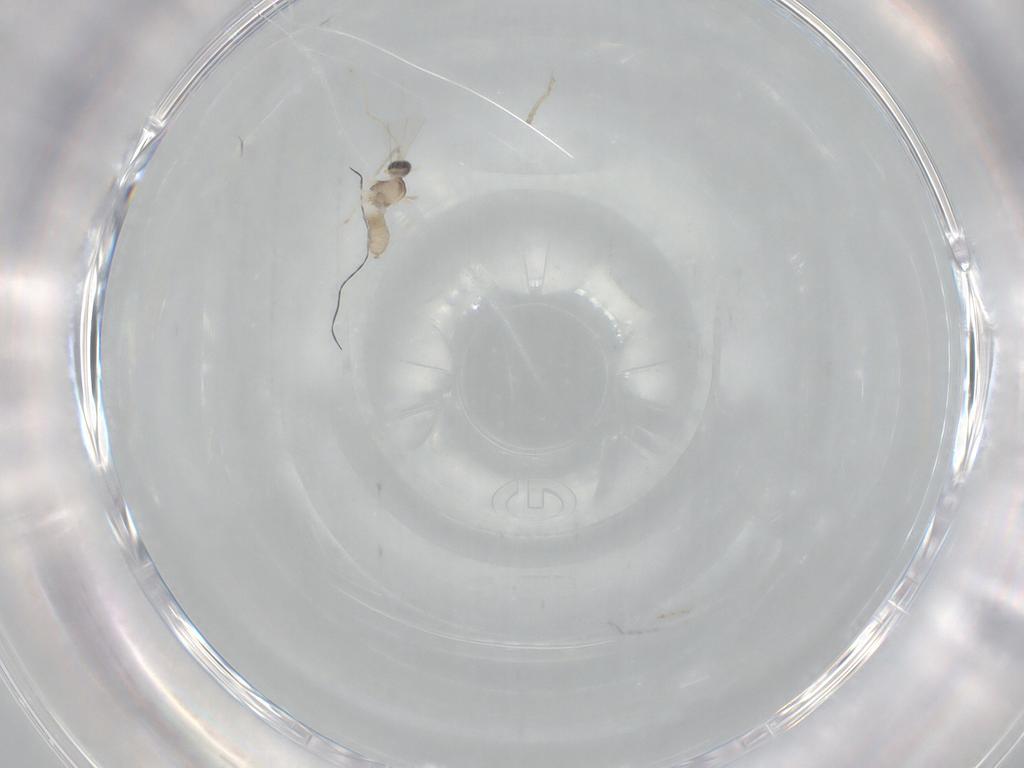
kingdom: Animalia
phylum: Arthropoda
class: Insecta
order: Diptera
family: Cecidomyiidae
